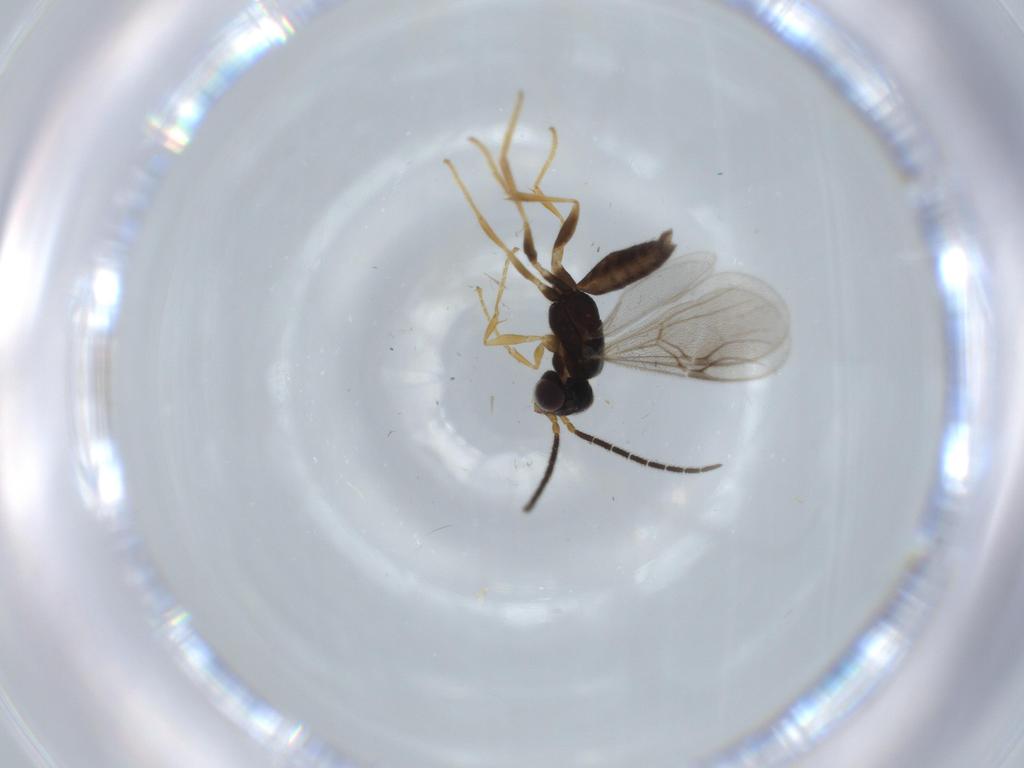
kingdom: Animalia
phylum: Arthropoda
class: Insecta
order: Hymenoptera
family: Dryinidae
